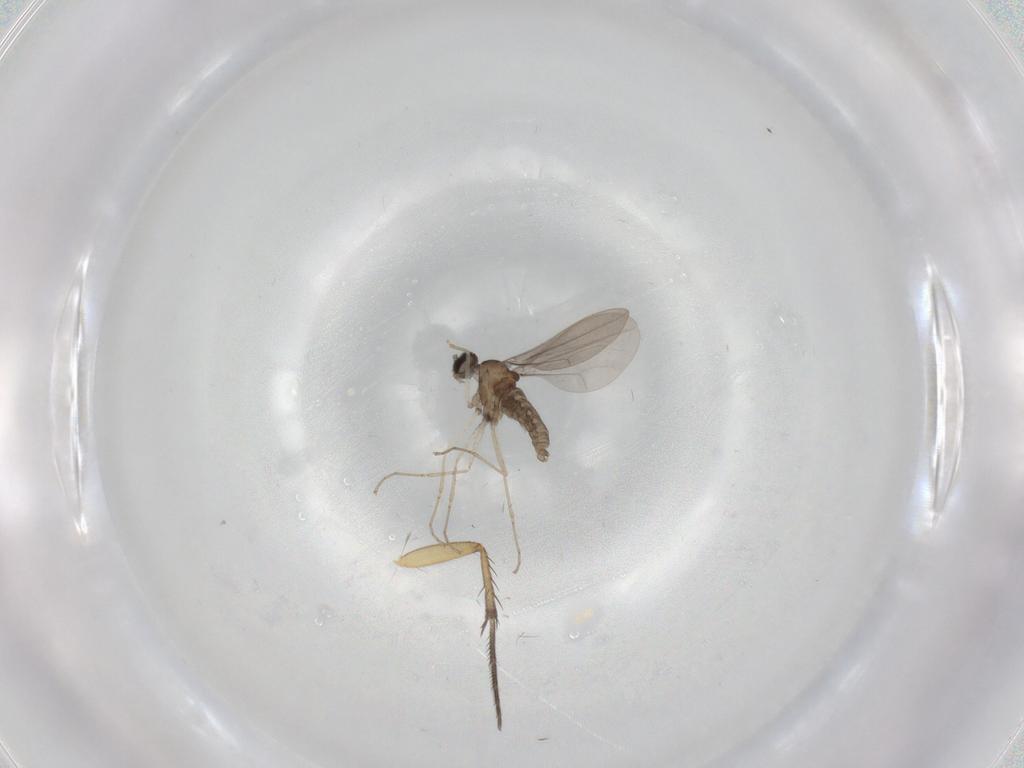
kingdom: Animalia
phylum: Arthropoda
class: Insecta
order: Diptera
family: Cecidomyiidae
